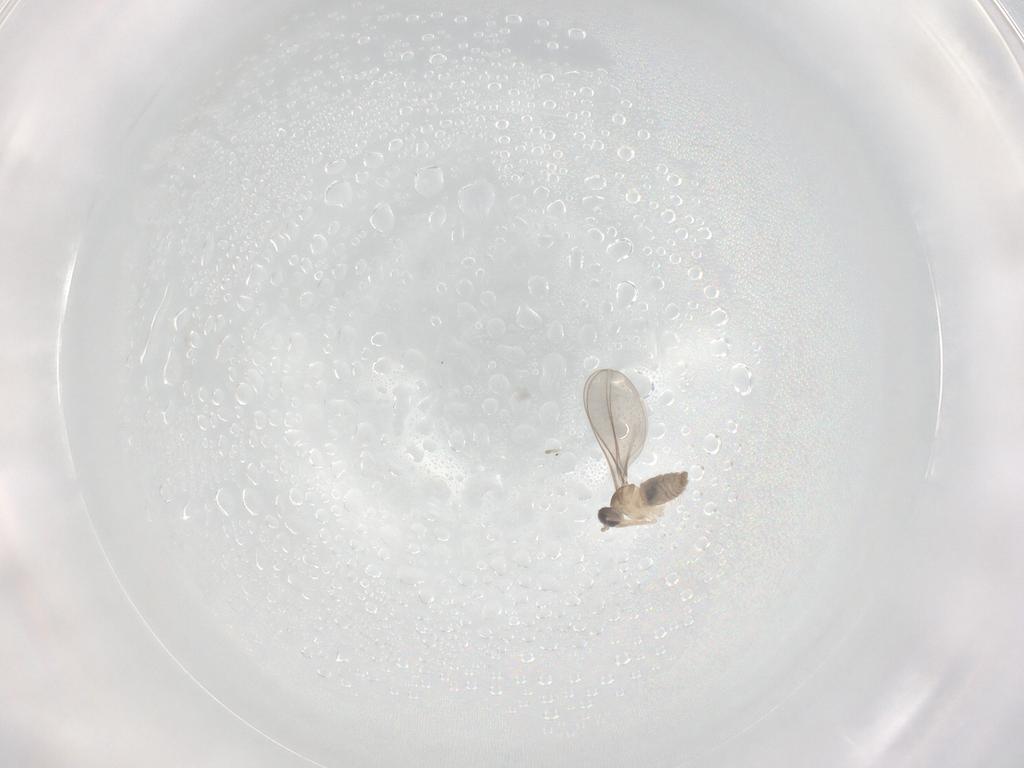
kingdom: Animalia
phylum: Arthropoda
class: Insecta
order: Diptera
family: Cecidomyiidae
